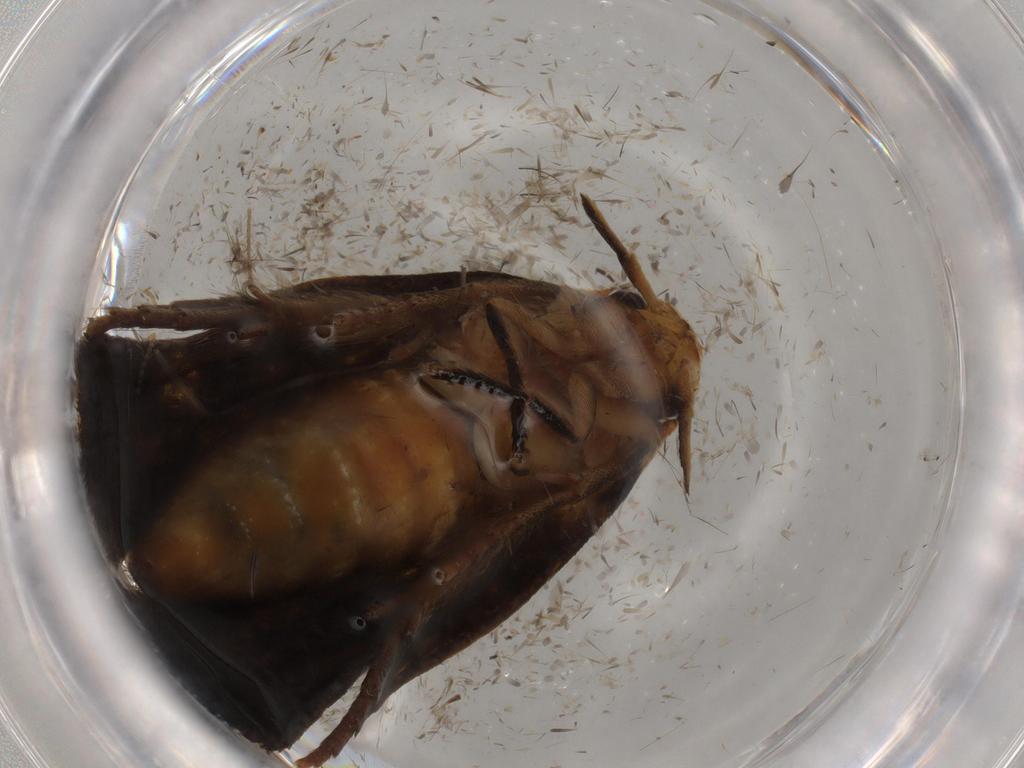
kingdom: Animalia
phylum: Arthropoda
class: Insecta
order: Lepidoptera
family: Tineidae
